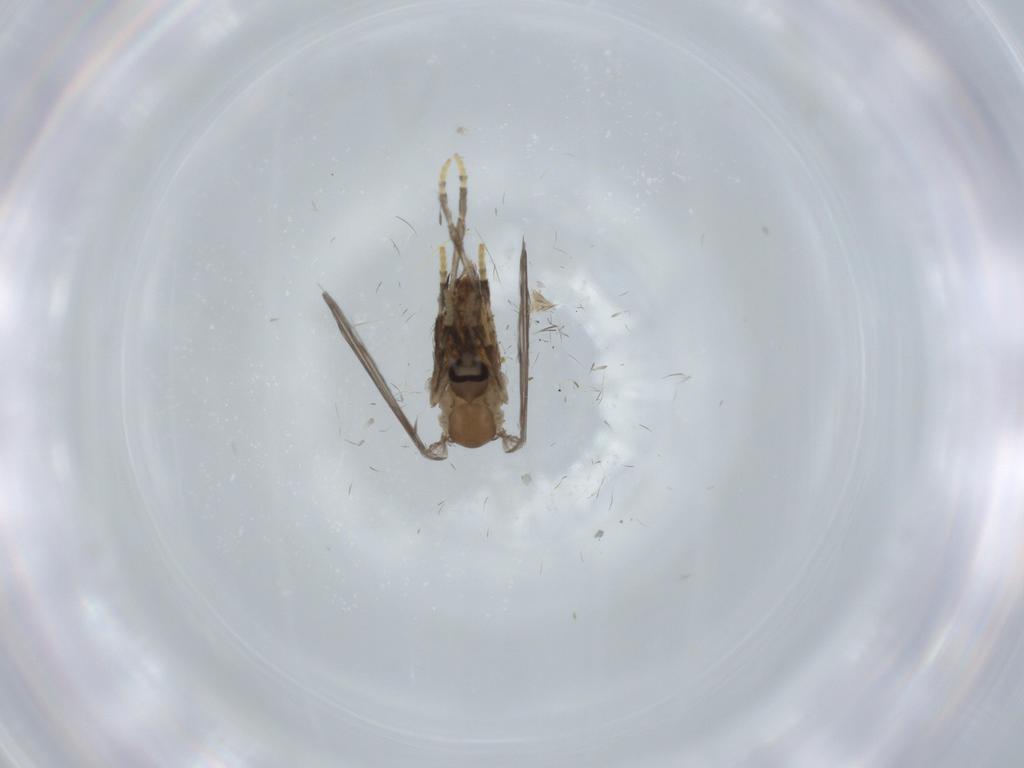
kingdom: Animalia
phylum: Arthropoda
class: Insecta
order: Diptera
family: Psychodidae
